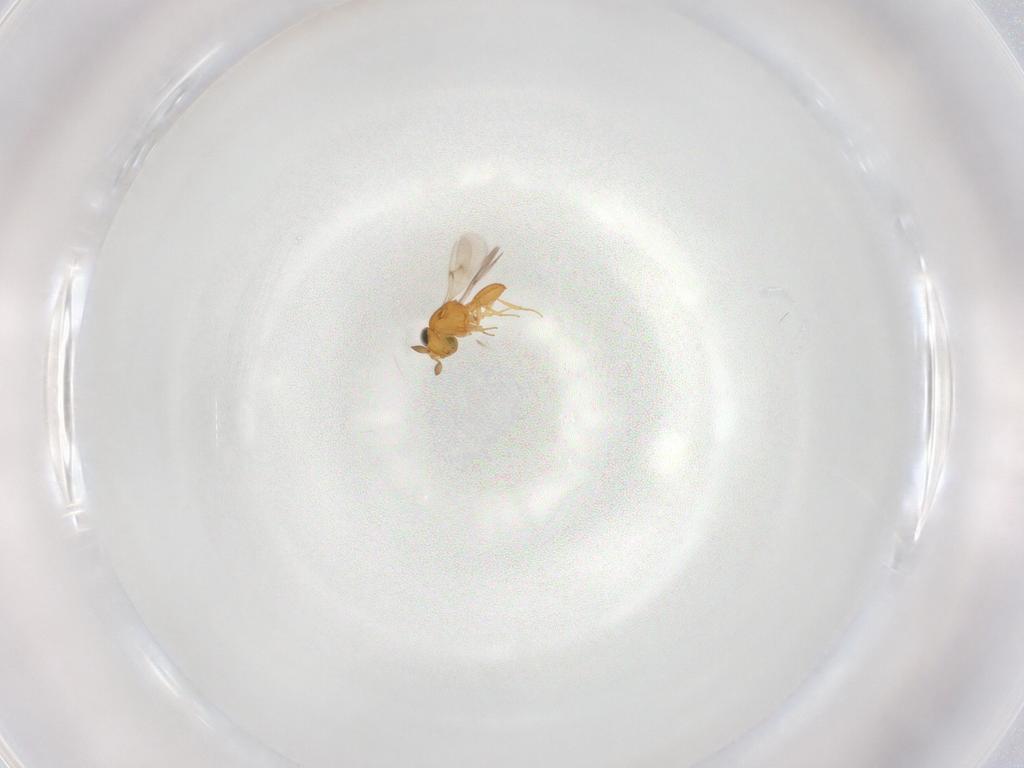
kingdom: Animalia
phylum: Arthropoda
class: Insecta
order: Hymenoptera
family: Scelionidae
